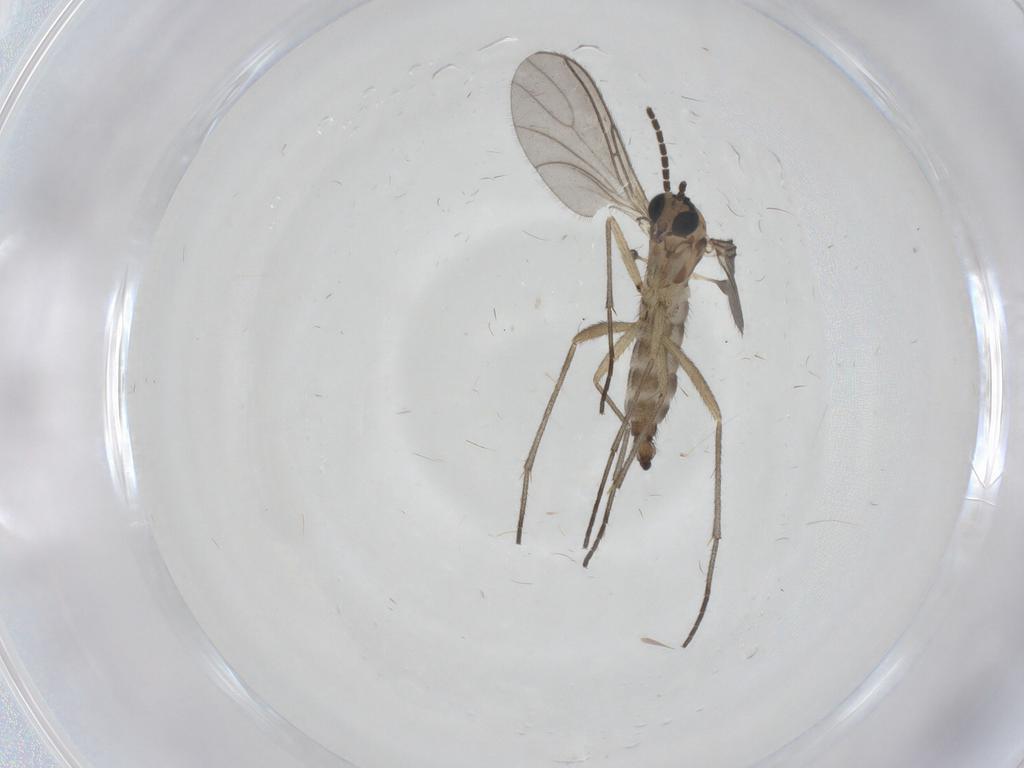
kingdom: Animalia
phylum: Arthropoda
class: Insecta
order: Diptera
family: Sciaridae
